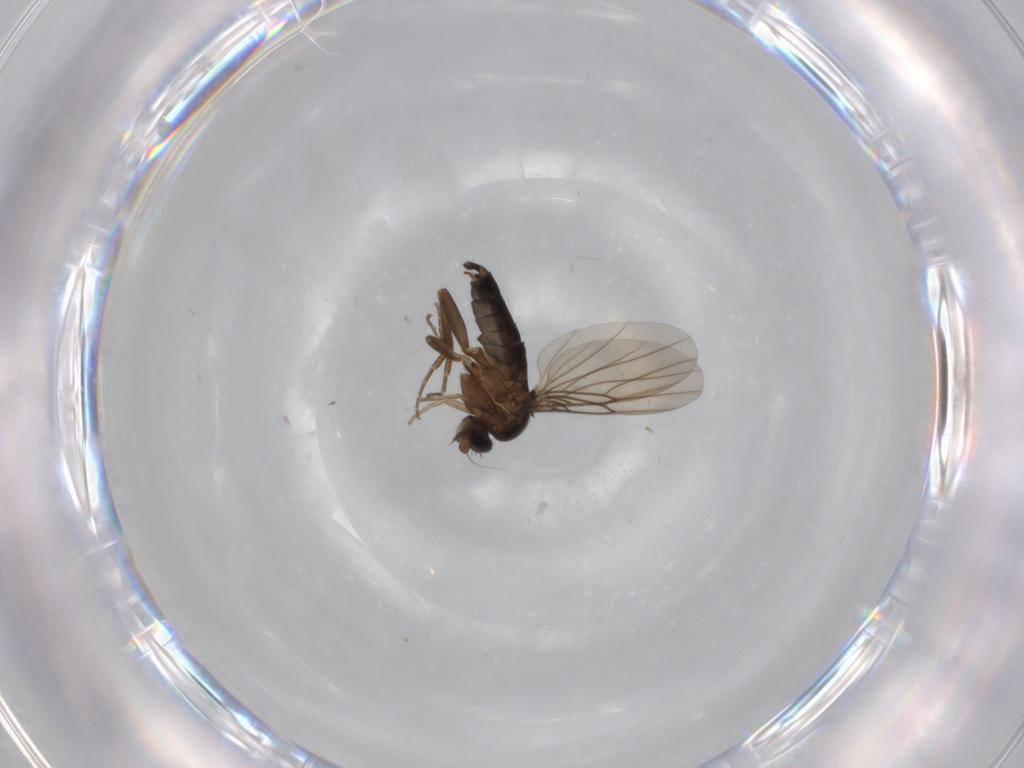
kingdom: Animalia
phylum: Arthropoda
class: Insecta
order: Diptera
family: Phoridae
